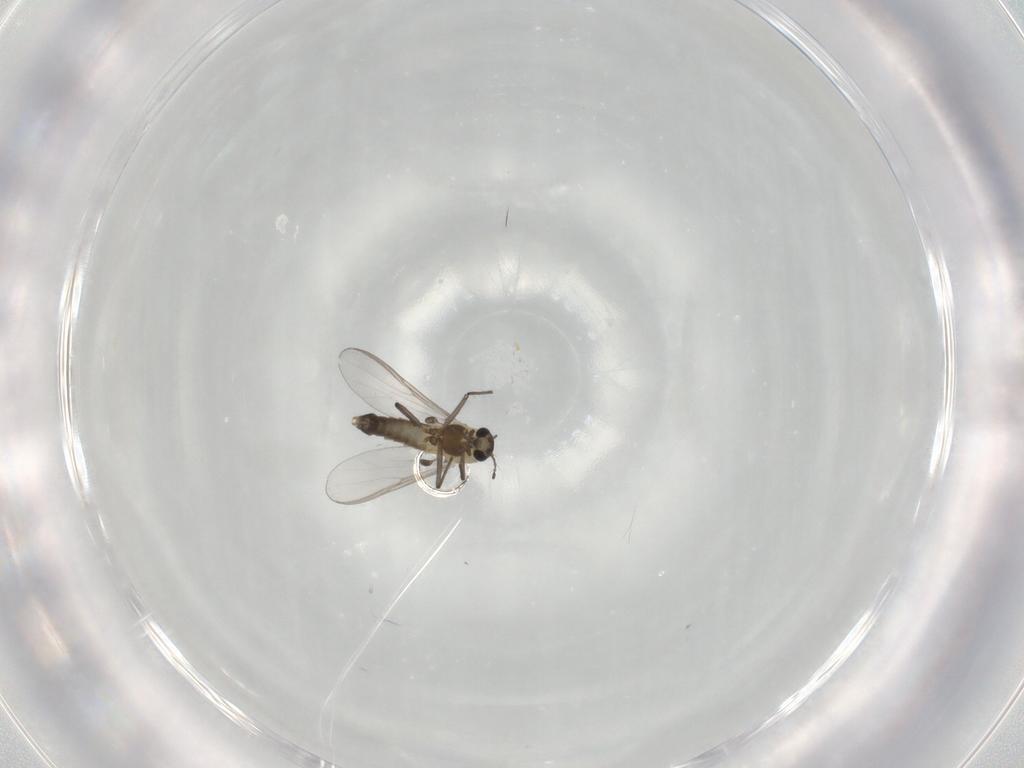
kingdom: Animalia
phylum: Arthropoda
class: Insecta
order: Diptera
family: Chironomidae
